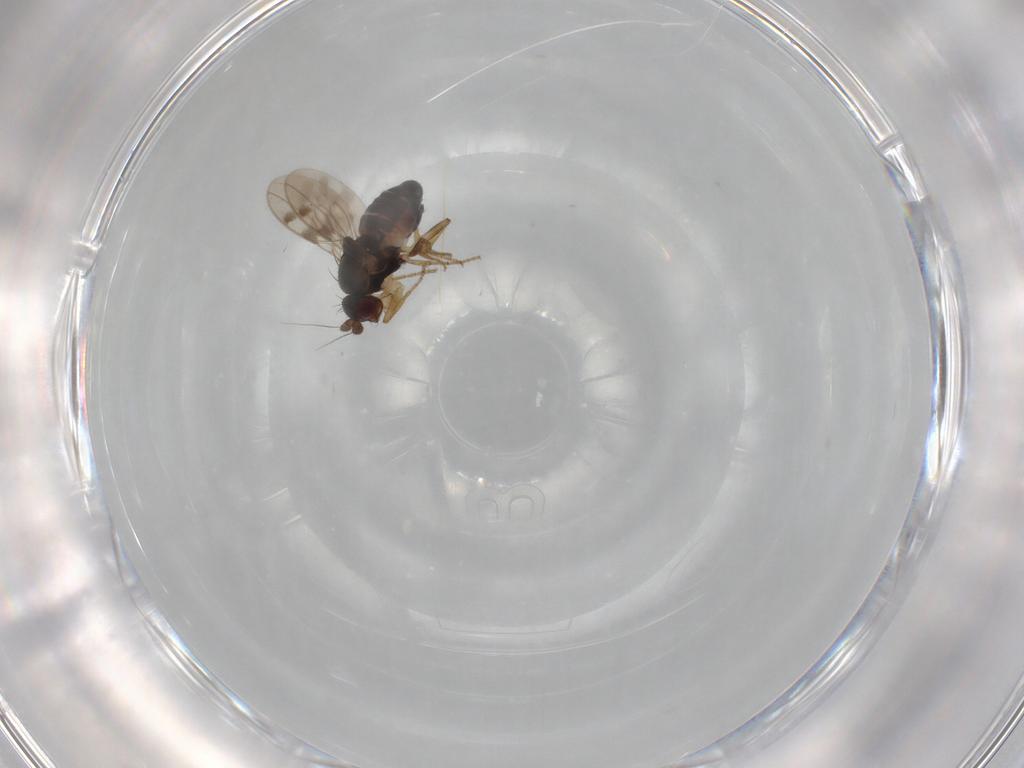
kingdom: Animalia
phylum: Arthropoda
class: Insecta
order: Diptera
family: Sphaeroceridae
